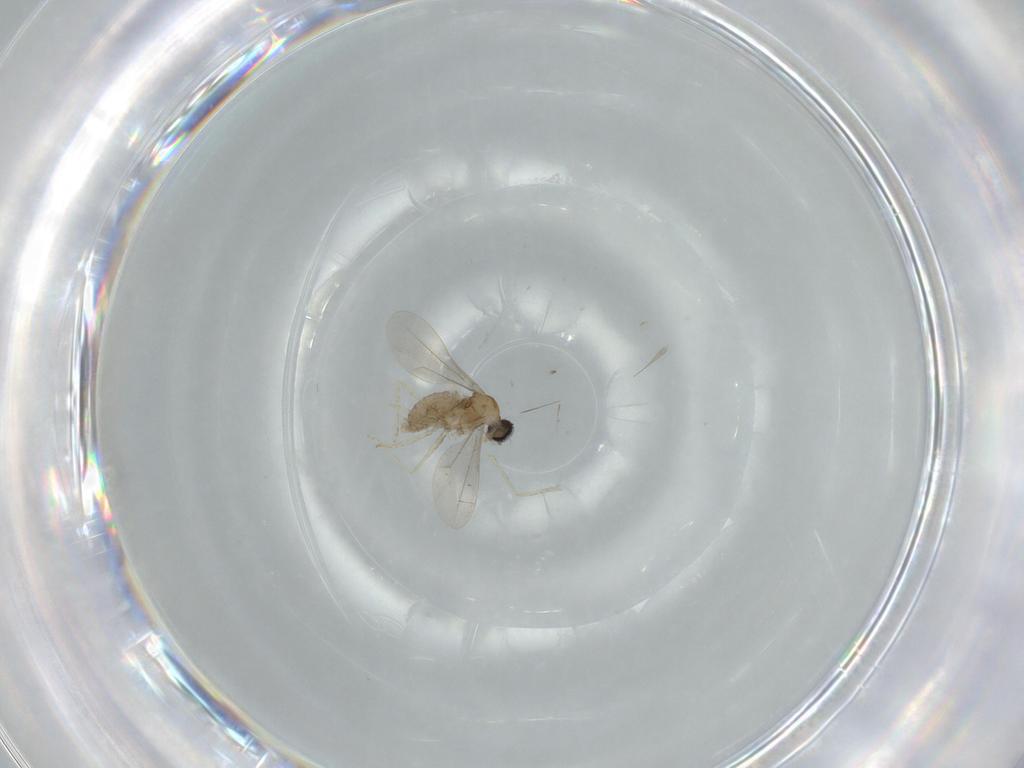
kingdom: Animalia
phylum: Arthropoda
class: Insecta
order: Diptera
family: Cecidomyiidae
